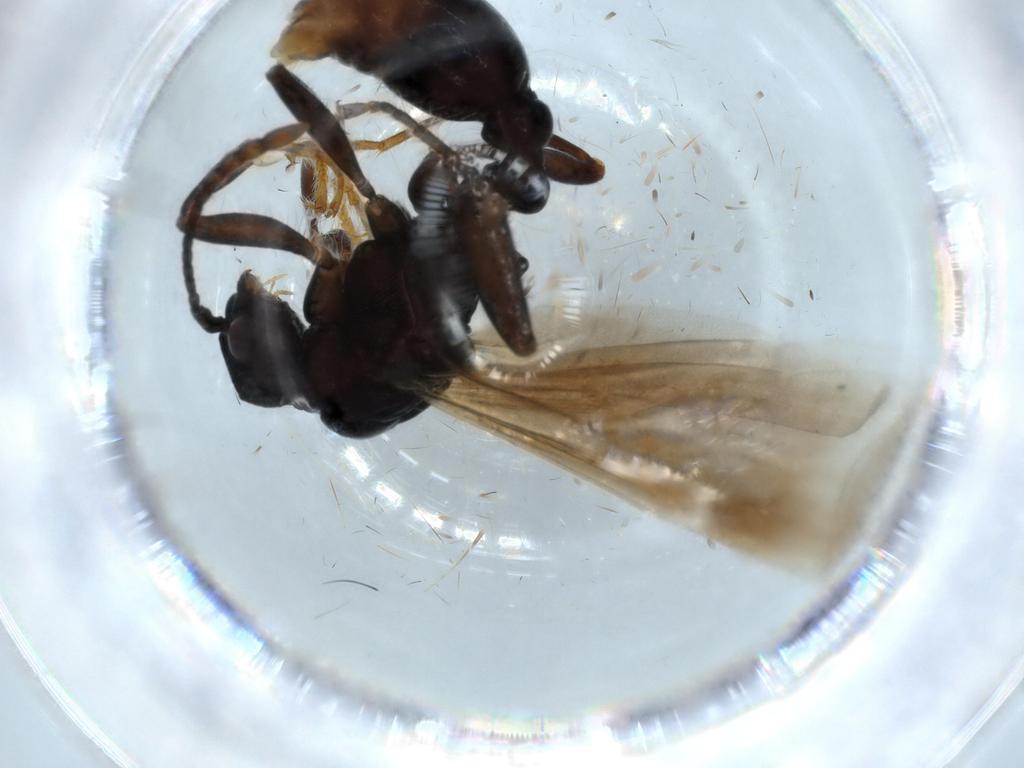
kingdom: Animalia
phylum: Arthropoda
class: Insecta
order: Hymenoptera
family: Formicidae
